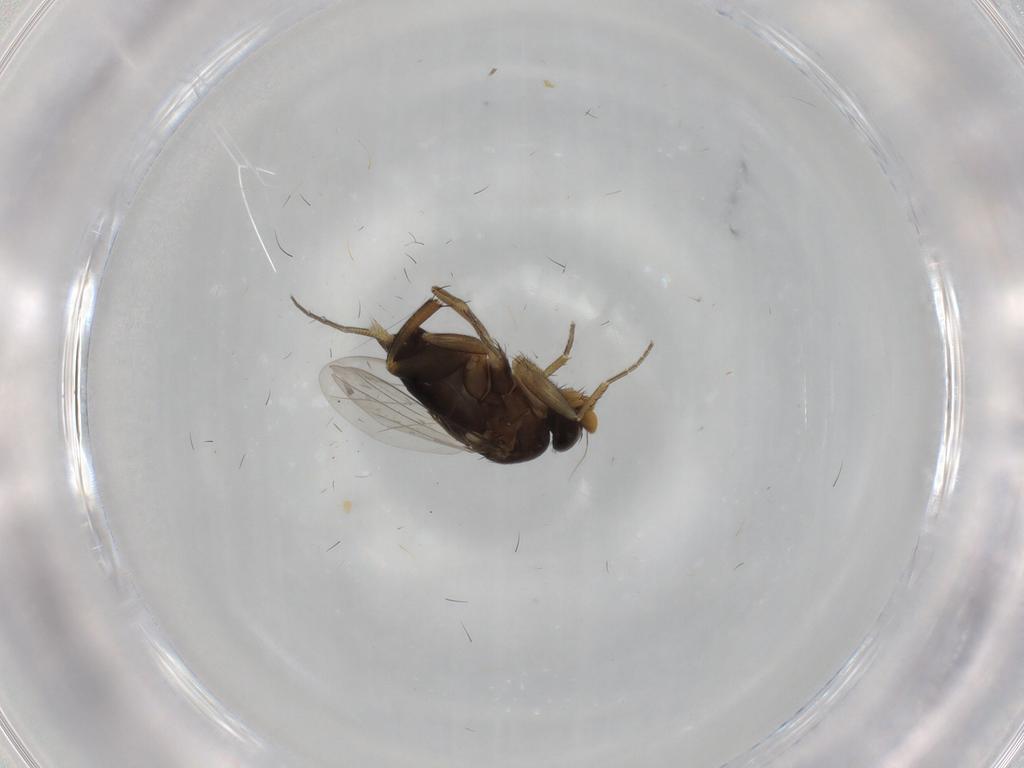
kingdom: Animalia
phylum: Arthropoda
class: Insecta
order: Diptera
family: Phoridae
